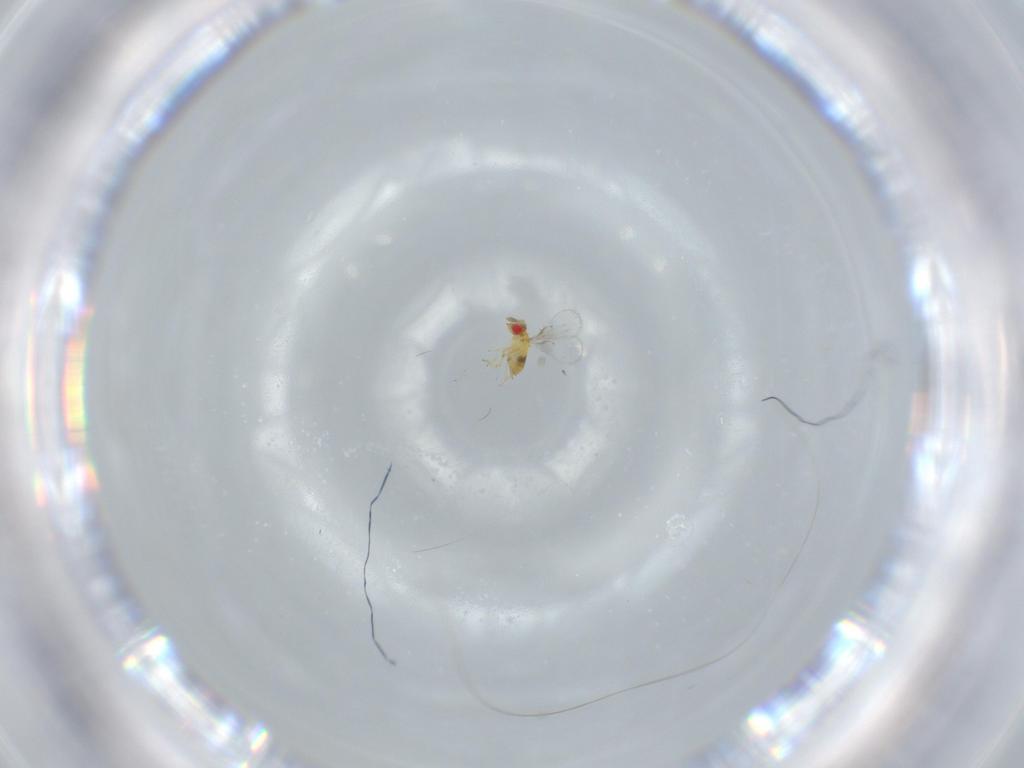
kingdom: Animalia
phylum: Arthropoda
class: Insecta
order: Hymenoptera
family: Trichogrammatidae
